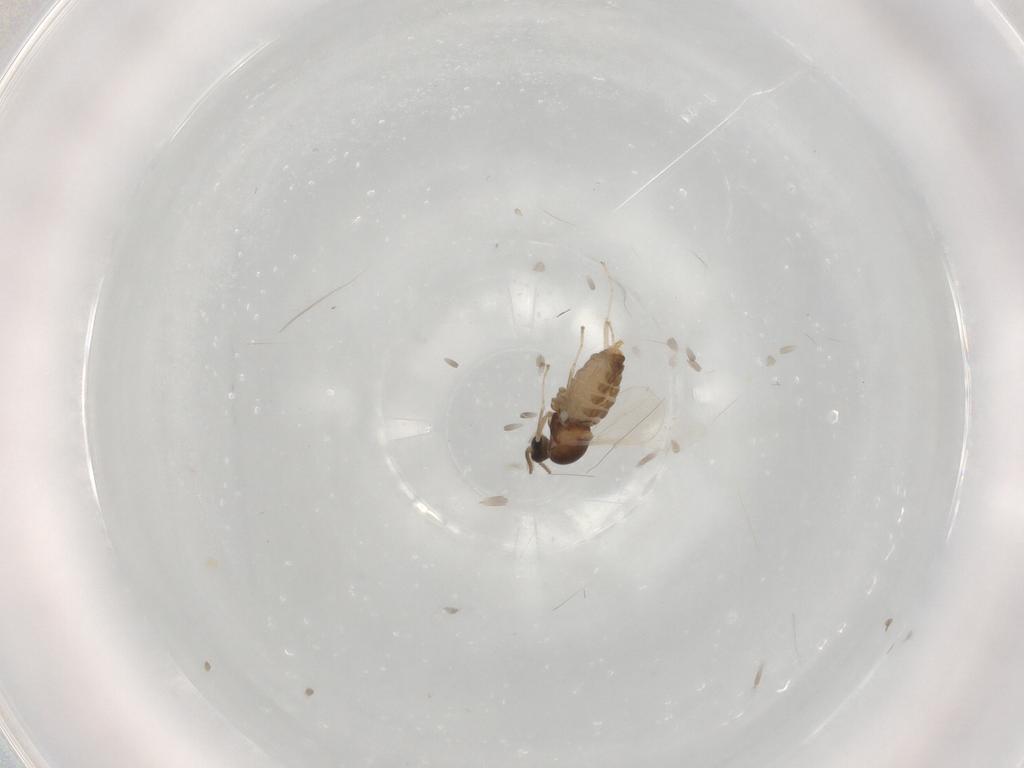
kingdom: Animalia
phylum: Arthropoda
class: Insecta
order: Diptera
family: Cecidomyiidae
